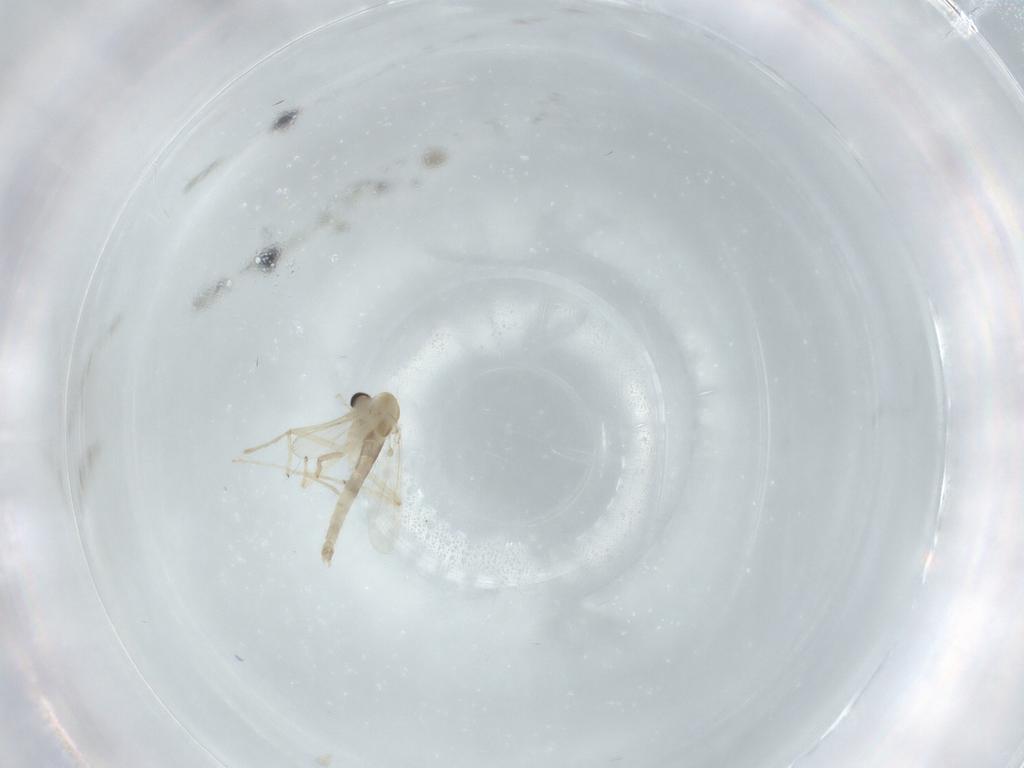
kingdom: Animalia
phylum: Arthropoda
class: Insecta
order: Diptera
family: Chironomidae
